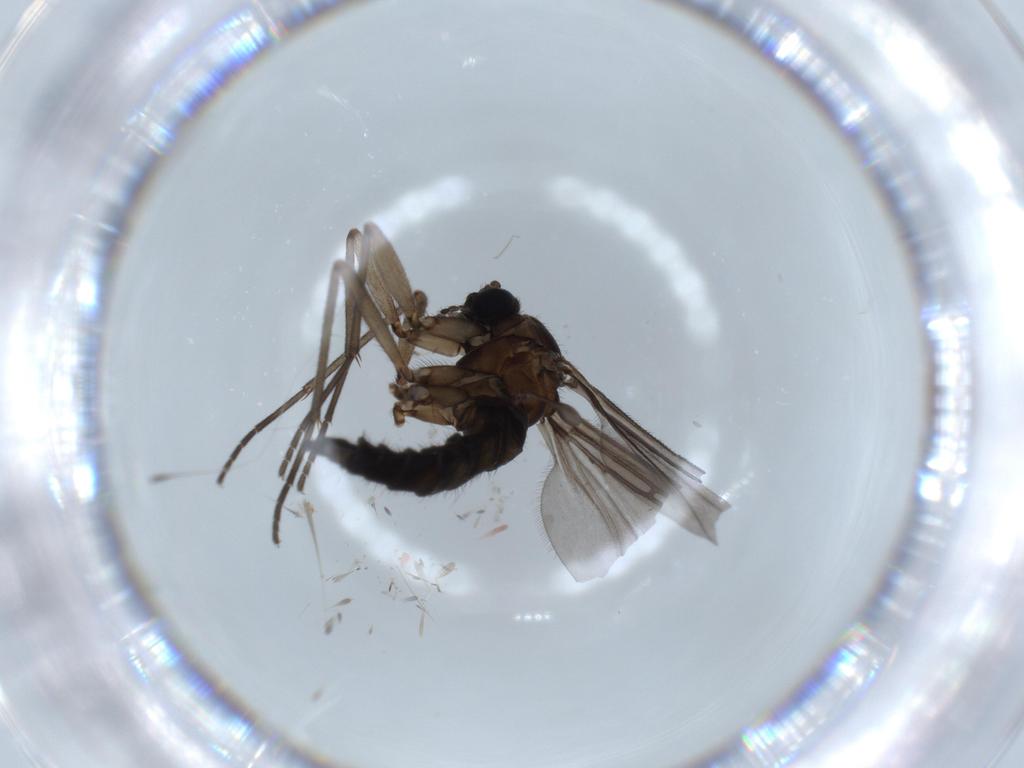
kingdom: Animalia
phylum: Arthropoda
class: Insecta
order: Diptera
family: Sciaridae
